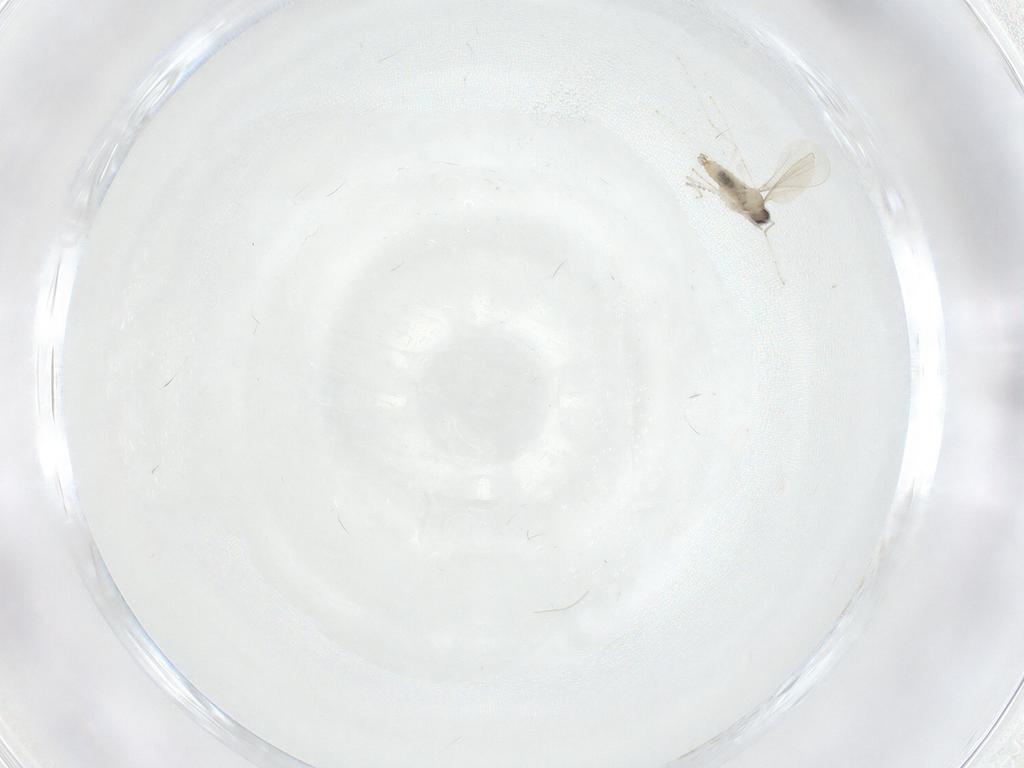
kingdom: Animalia
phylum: Arthropoda
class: Insecta
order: Diptera
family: Cecidomyiidae
